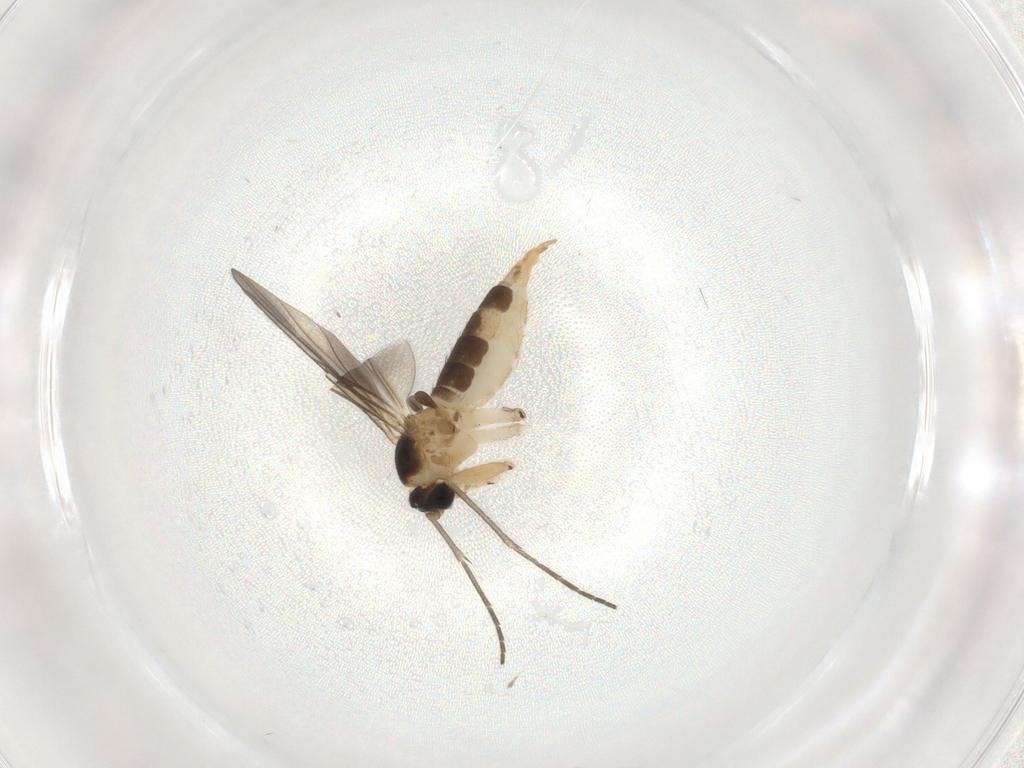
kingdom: Animalia
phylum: Arthropoda
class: Insecta
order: Diptera
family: Sciaridae
